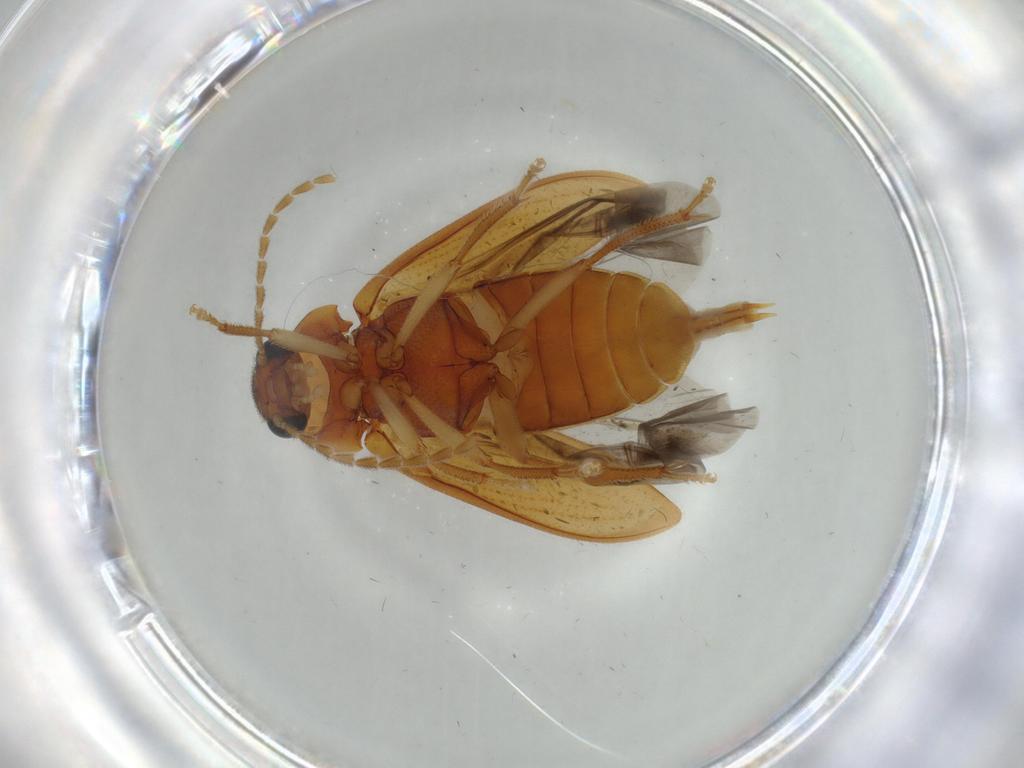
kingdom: Animalia
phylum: Arthropoda
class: Insecta
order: Coleoptera
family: Ptilodactylidae
